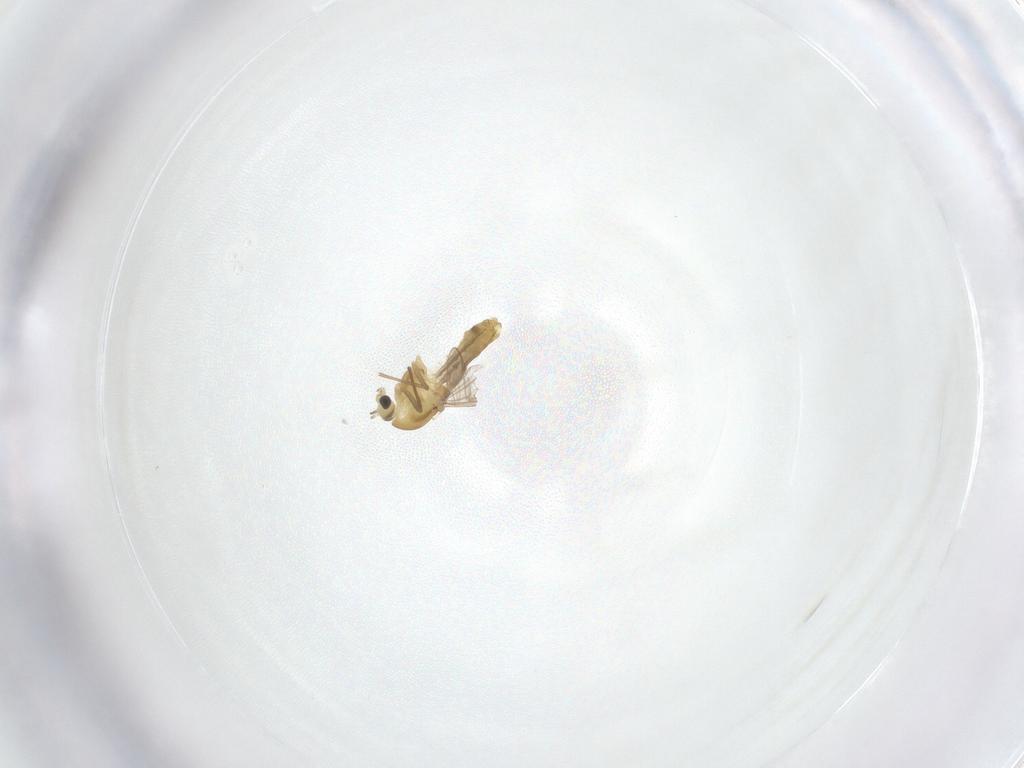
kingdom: Animalia
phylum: Arthropoda
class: Insecta
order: Diptera
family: Chironomidae
